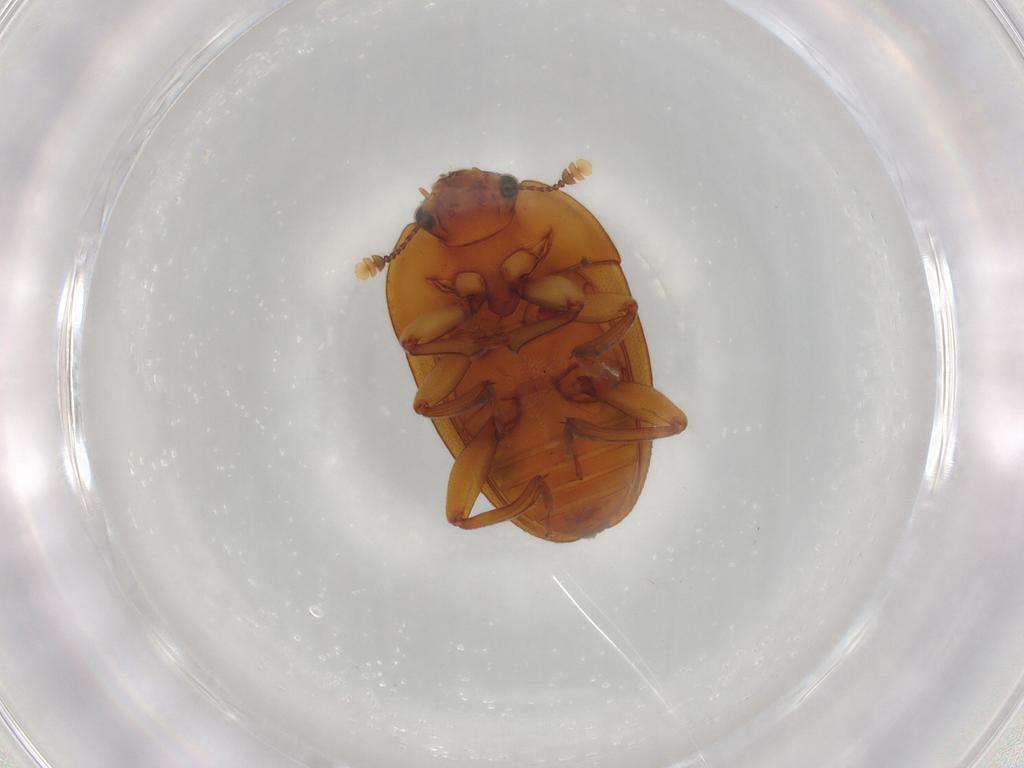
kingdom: Animalia
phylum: Arthropoda
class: Insecta
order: Coleoptera
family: Nitidulidae
